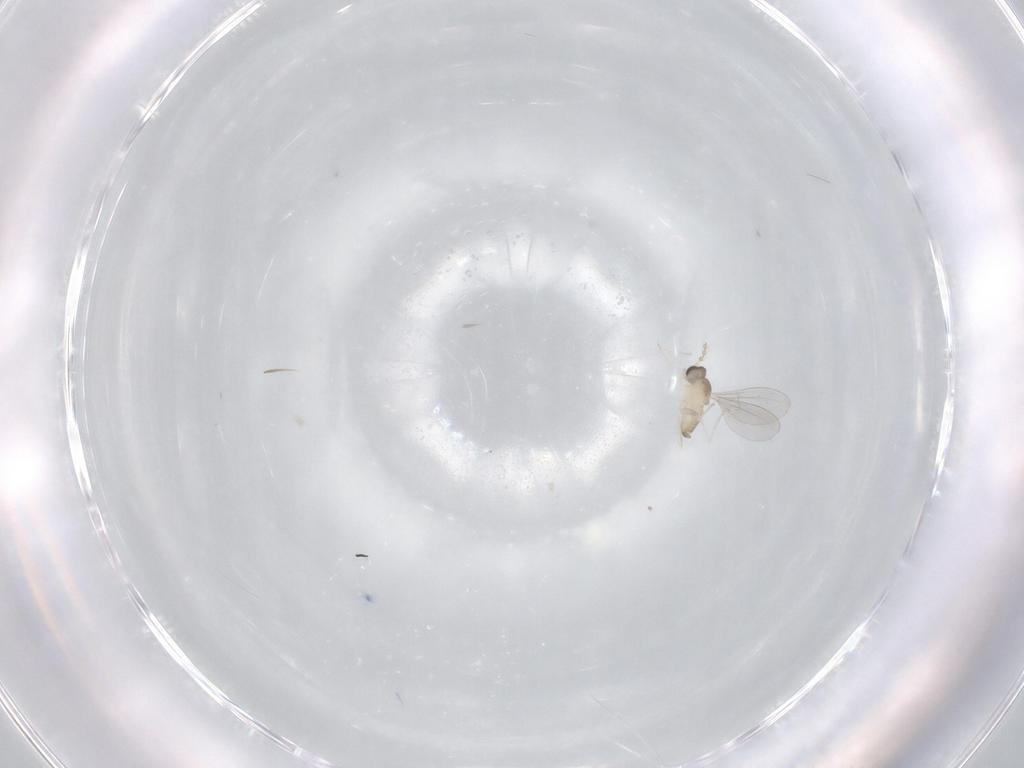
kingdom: Animalia
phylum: Arthropoda
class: Insecta
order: Diptera
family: Cecidomyiidae
